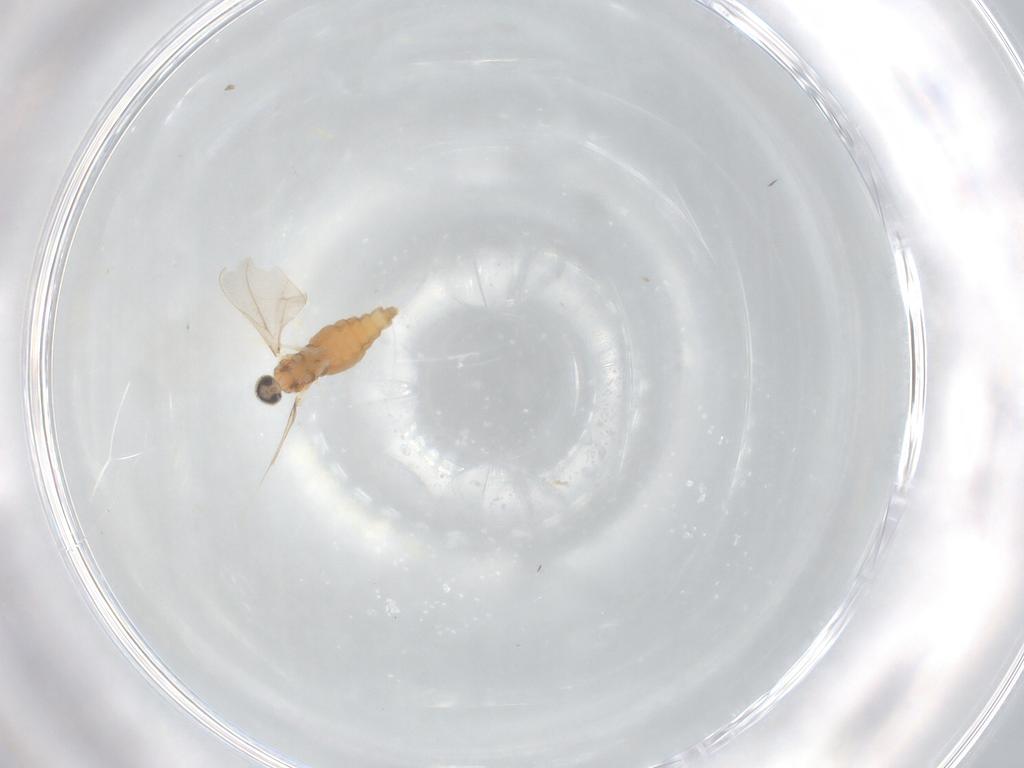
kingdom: Animalia
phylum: Arthropoda
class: Insecta
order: Diptera
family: Cecidomyiidae
